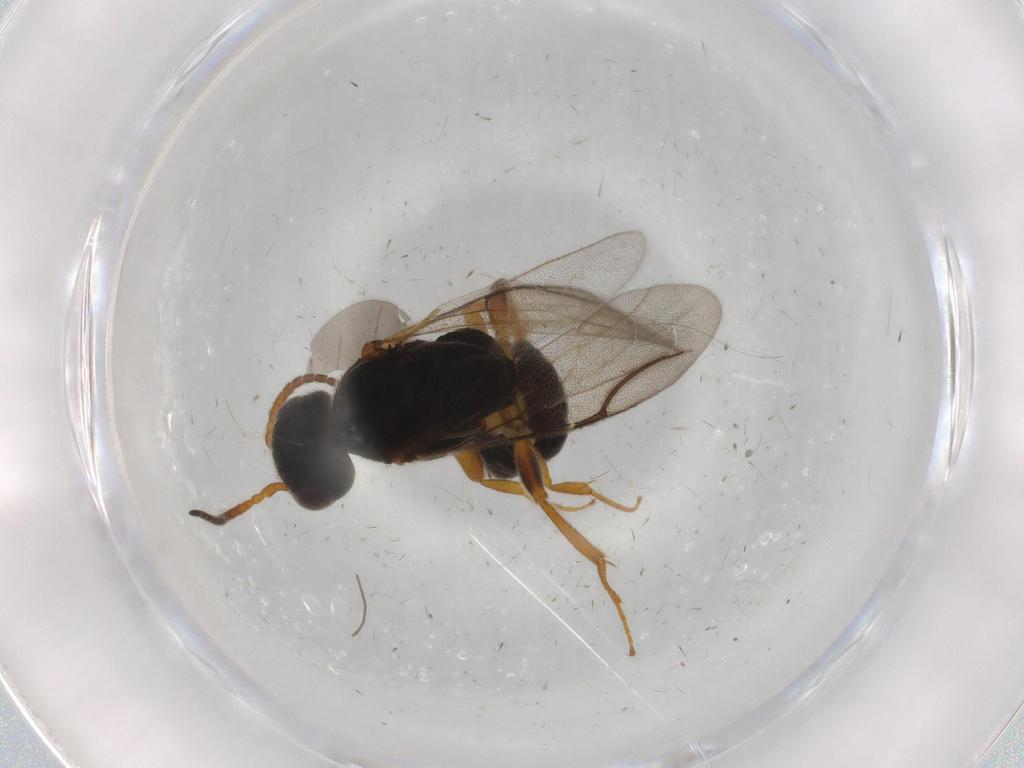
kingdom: Animalia
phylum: Arthropoda
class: Insecta
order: Hymenoptera
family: Bethylidae
